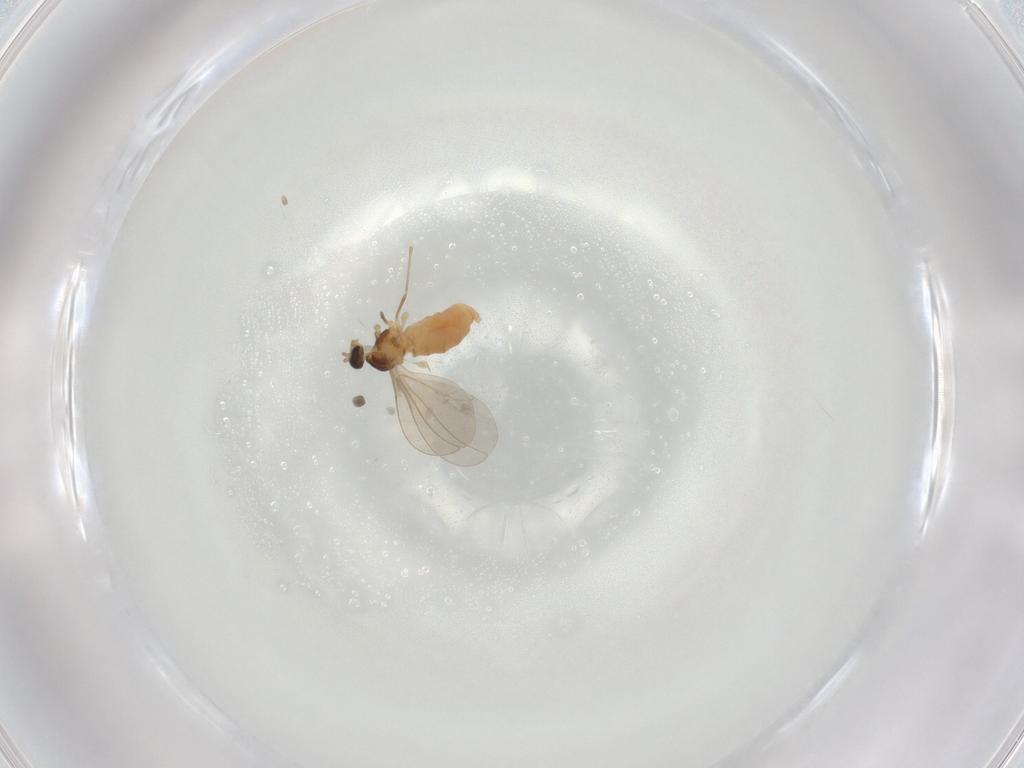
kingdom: Animalia
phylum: Arthropoda
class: Insecta
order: Diptera
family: Cecidomyiidae
